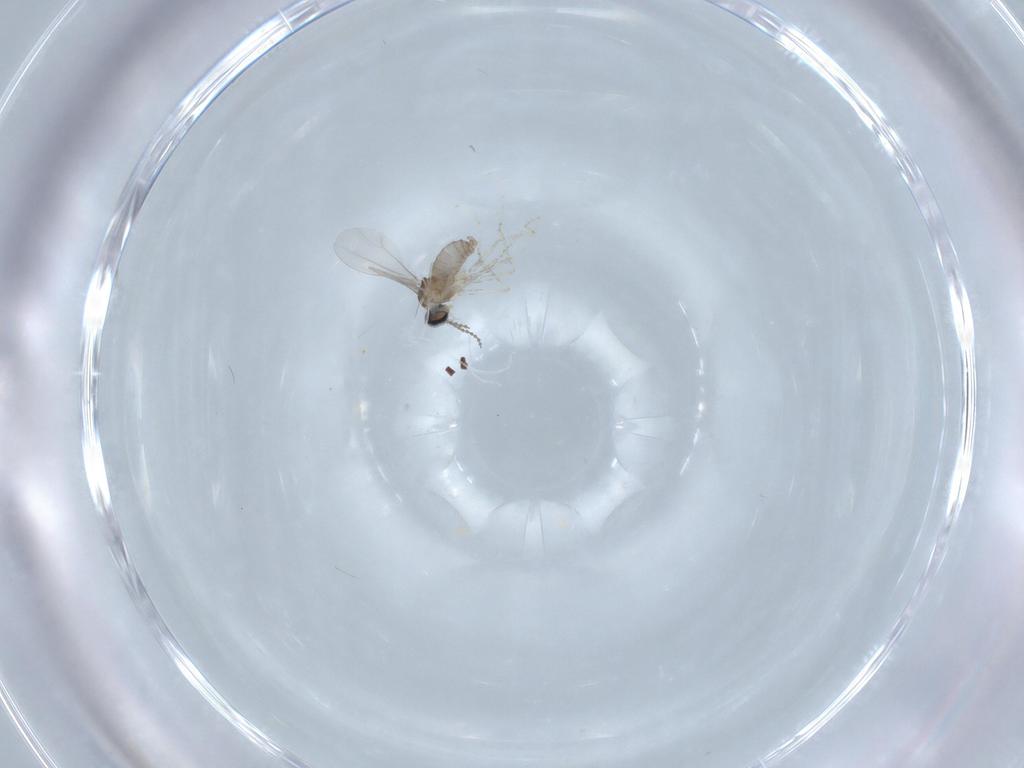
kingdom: Animalia
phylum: Arthropoda
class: Insecta
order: Diptera
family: Cecidomyiidae
